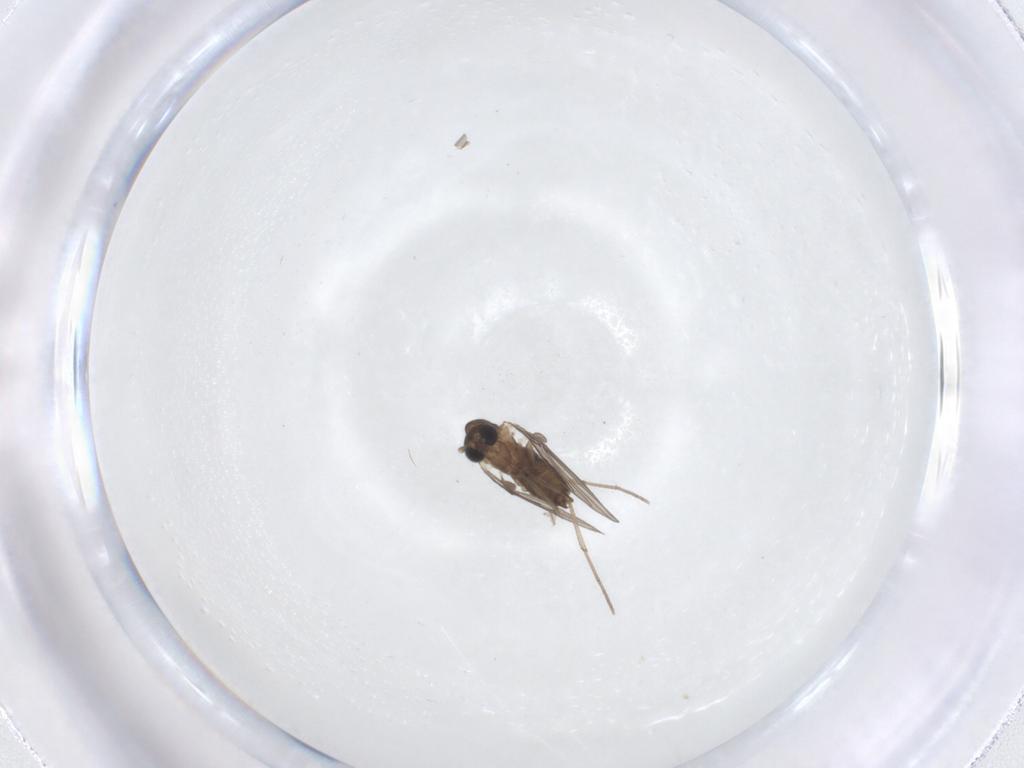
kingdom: Animalia
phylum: Arthropoda
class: Insecta
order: Diptera
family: Psychodidae
